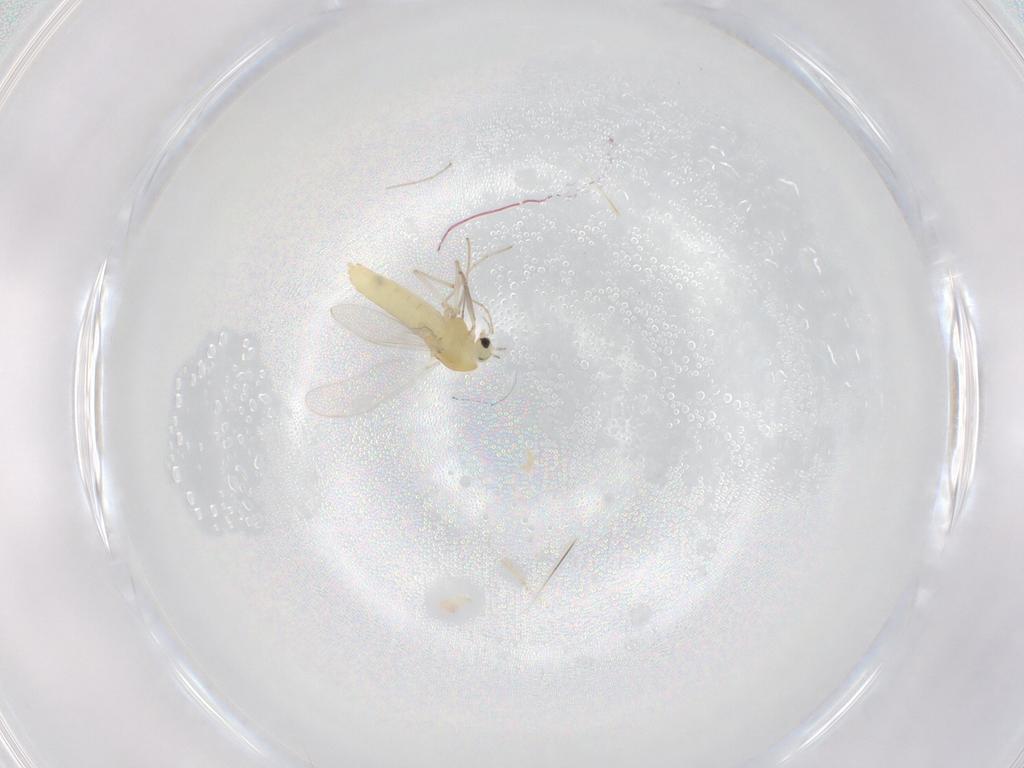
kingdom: Animalia
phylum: Arthropoda
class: Insecta
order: Diptera
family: Chironomidae
